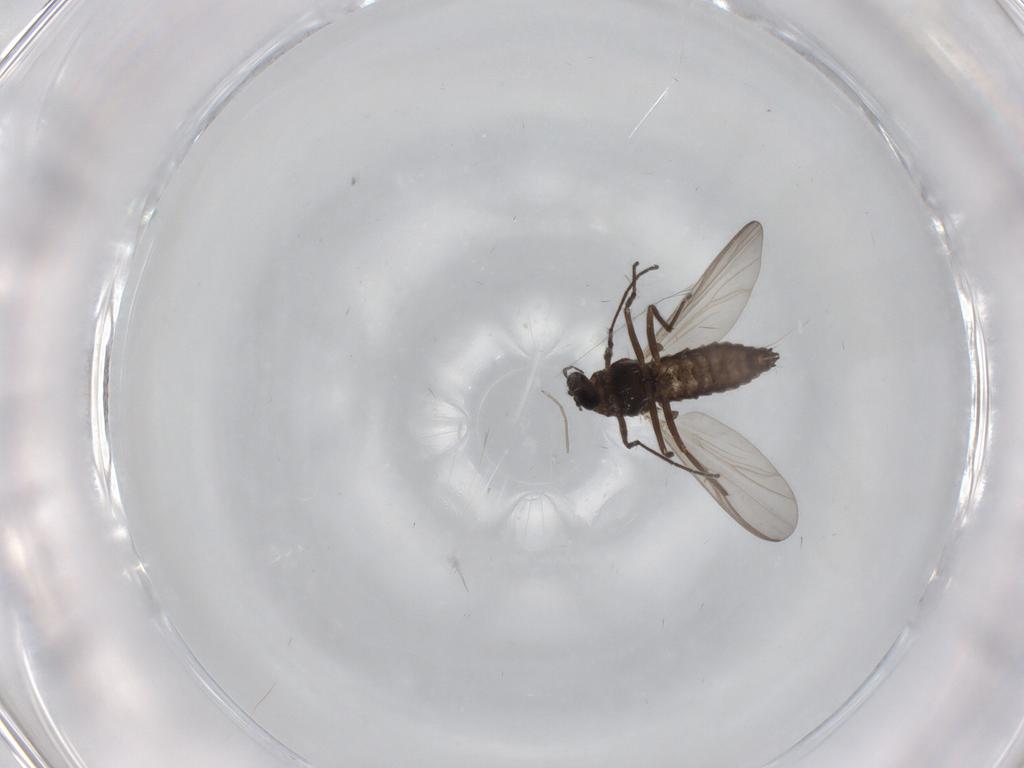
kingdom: Animalia
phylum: Arthropoda
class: Insecta
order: Diptera
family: Chironomidae
